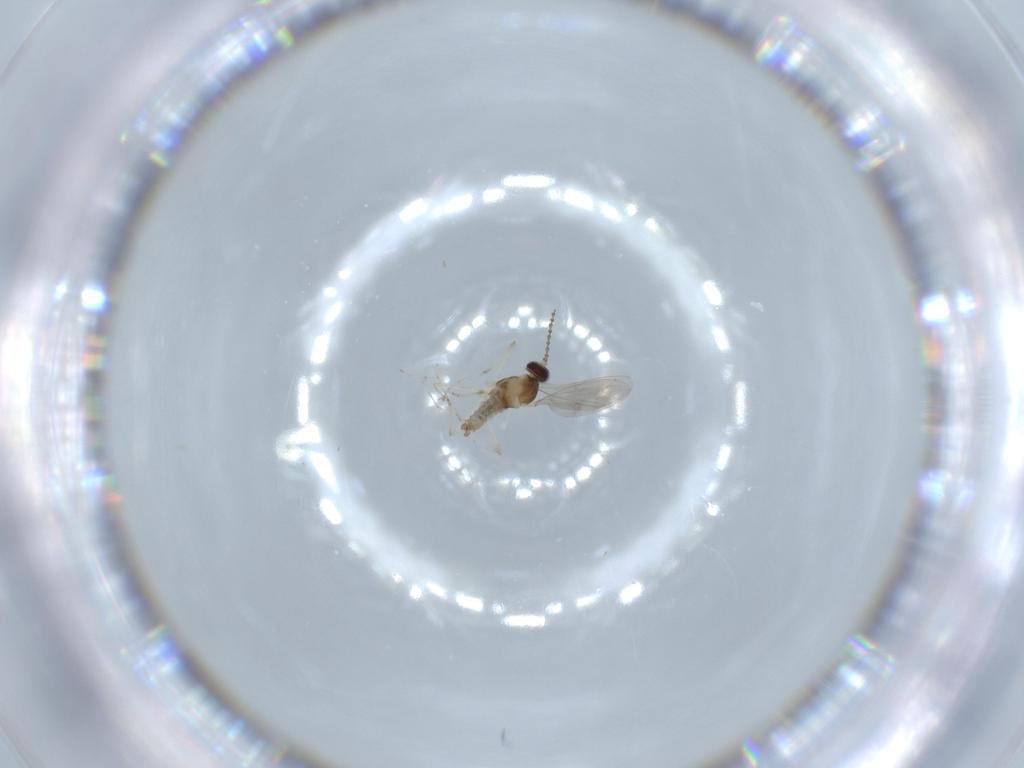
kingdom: Animalia
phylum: Arthropoda
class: Insecta
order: Diptera
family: Cecidomyiidae
